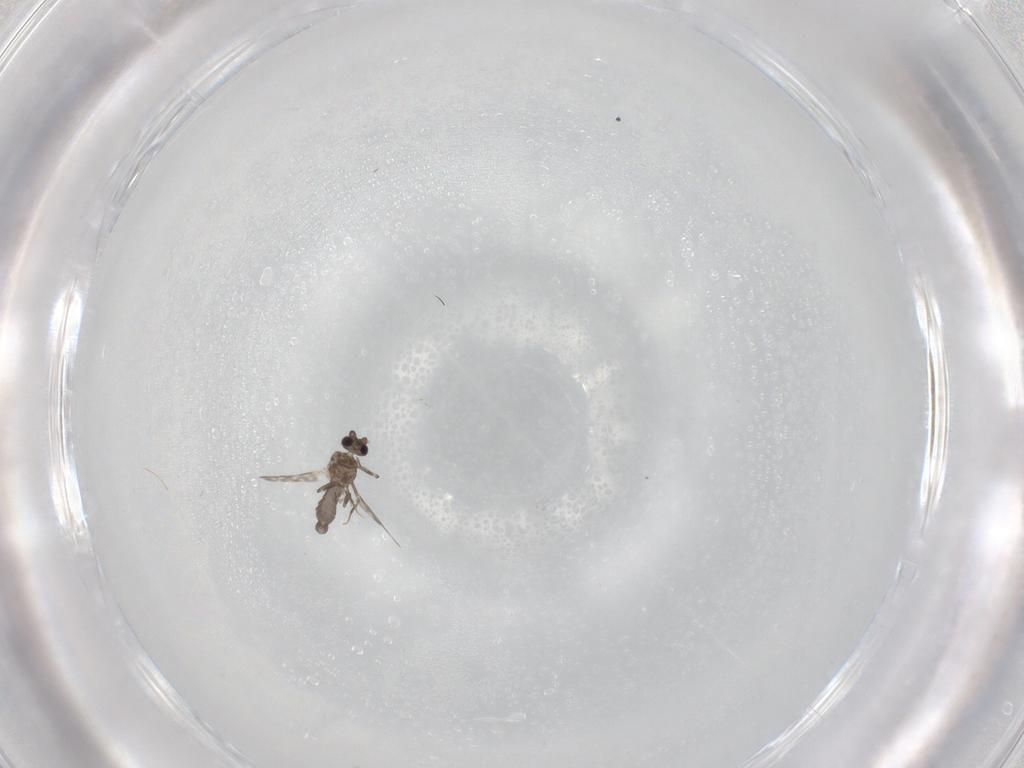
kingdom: Animalia
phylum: Arthropoda
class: Insecta
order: Diptera
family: Ceratopogonidae
